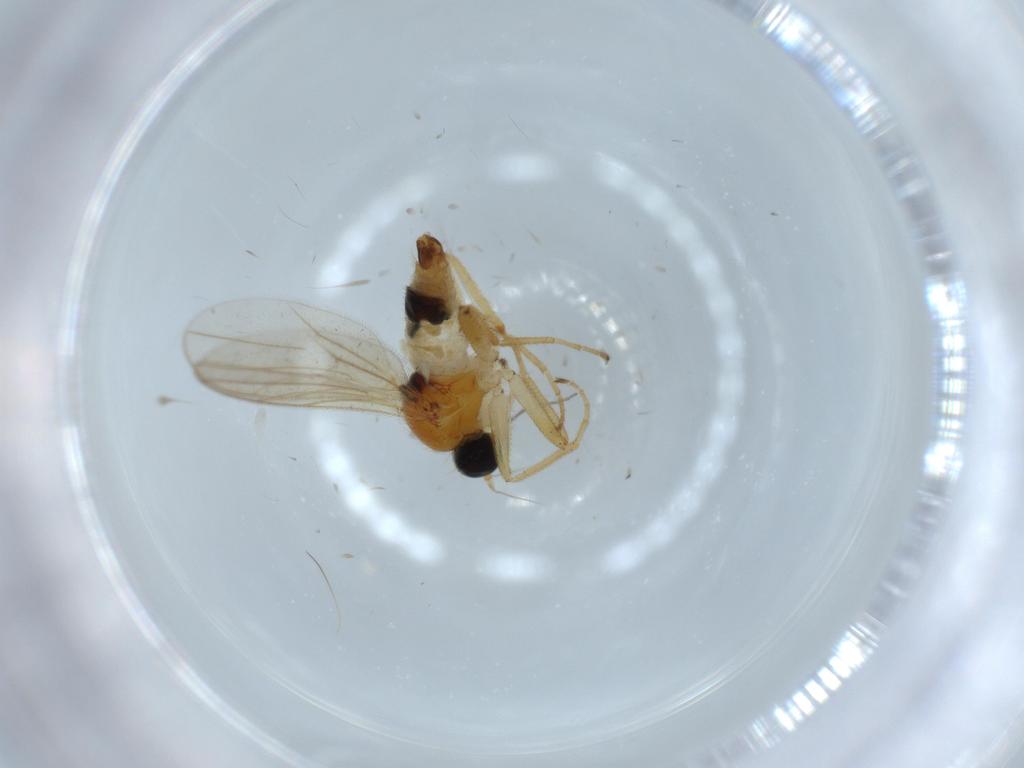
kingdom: Animalia
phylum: Arthropoda
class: Insecta
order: Diptera
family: Hybotidae
